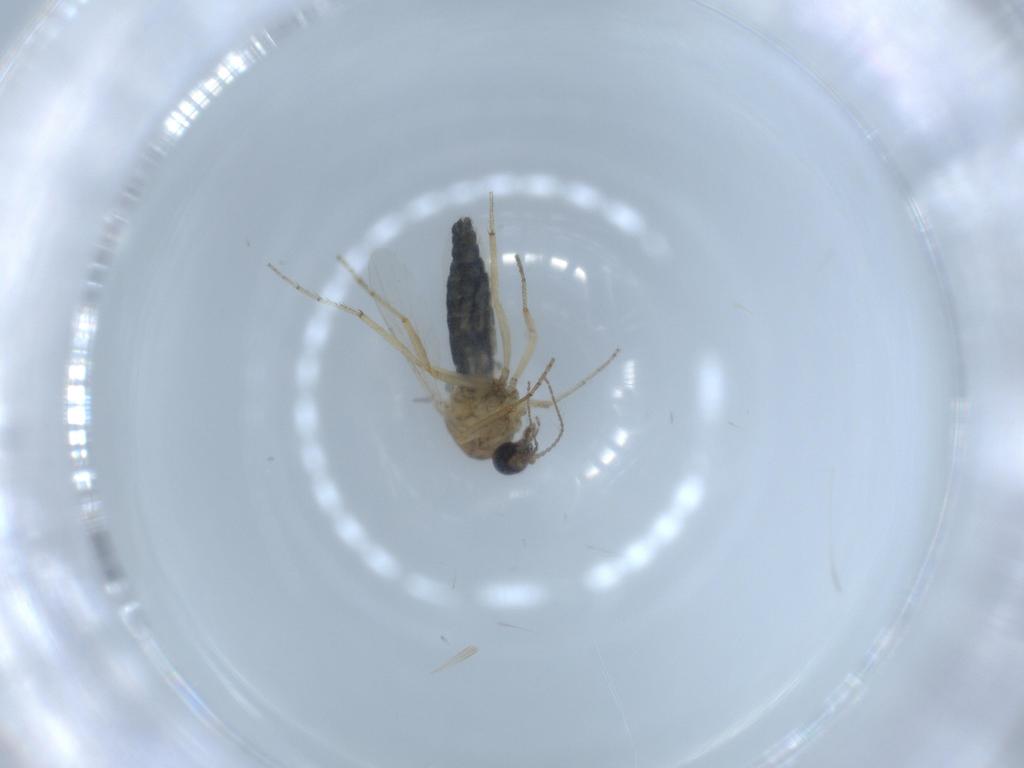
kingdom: Animalia
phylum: Arthropoda
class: Insecta
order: Diptera
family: Ceratopogonidae
